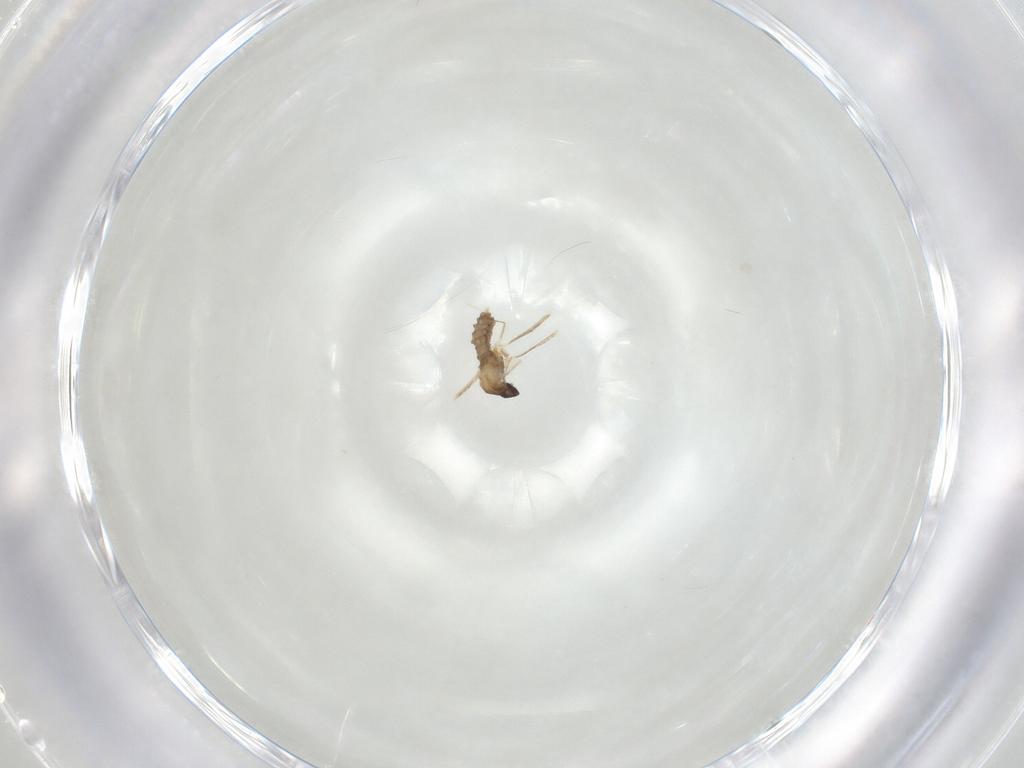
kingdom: Animalia
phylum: Arthropoda
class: Insecta
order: Diptera
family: Cecidomyiidae
